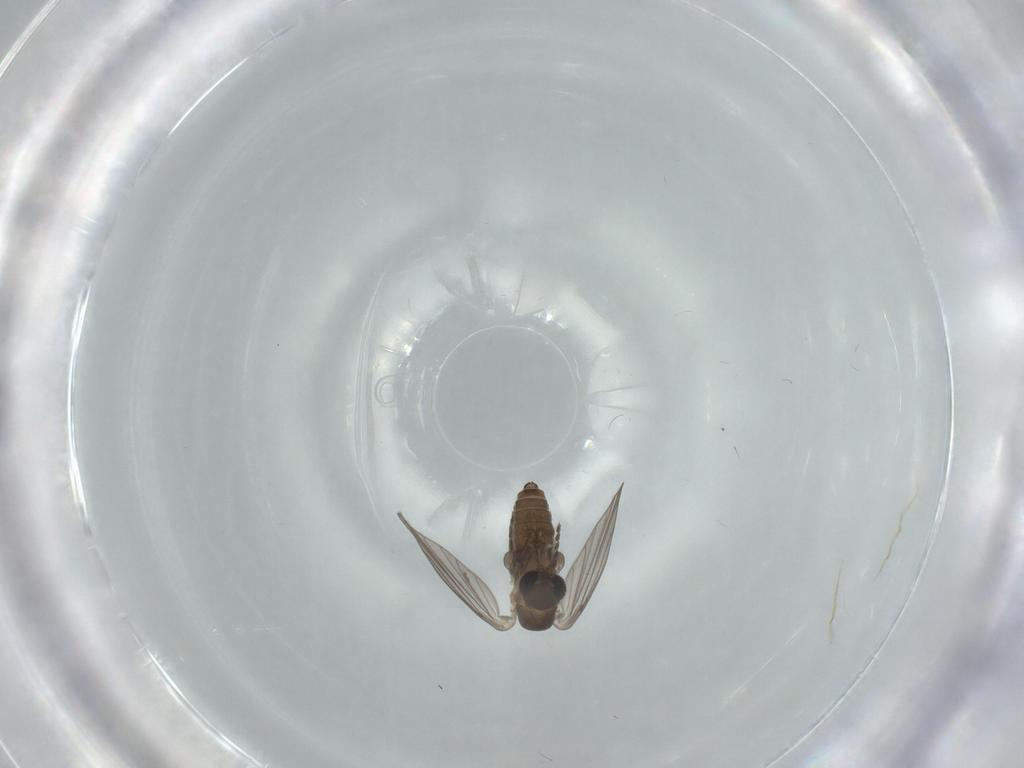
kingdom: Animalia
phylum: Arthropoda
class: Insecta
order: Diptera
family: Psychodidae
